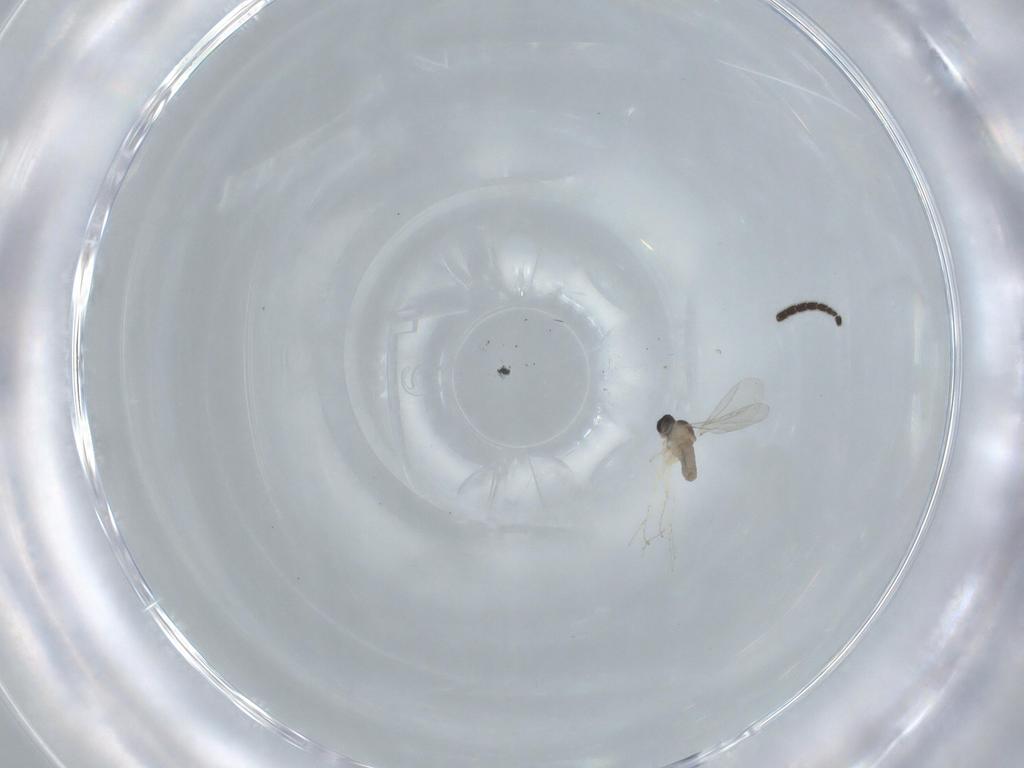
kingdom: Animalia
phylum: Arthropoda
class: Insecta
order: Diptera
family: Sciaridae
